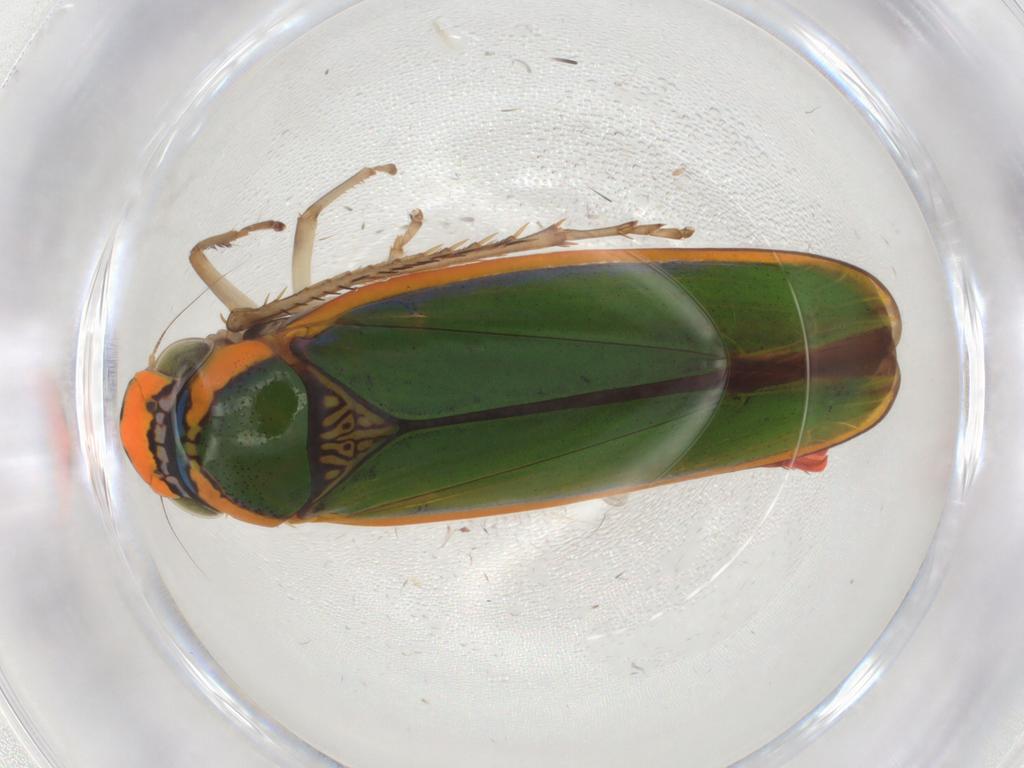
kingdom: Animalia
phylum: Arthropoda
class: Insecta
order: Hemiptera
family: Cicadellidae
